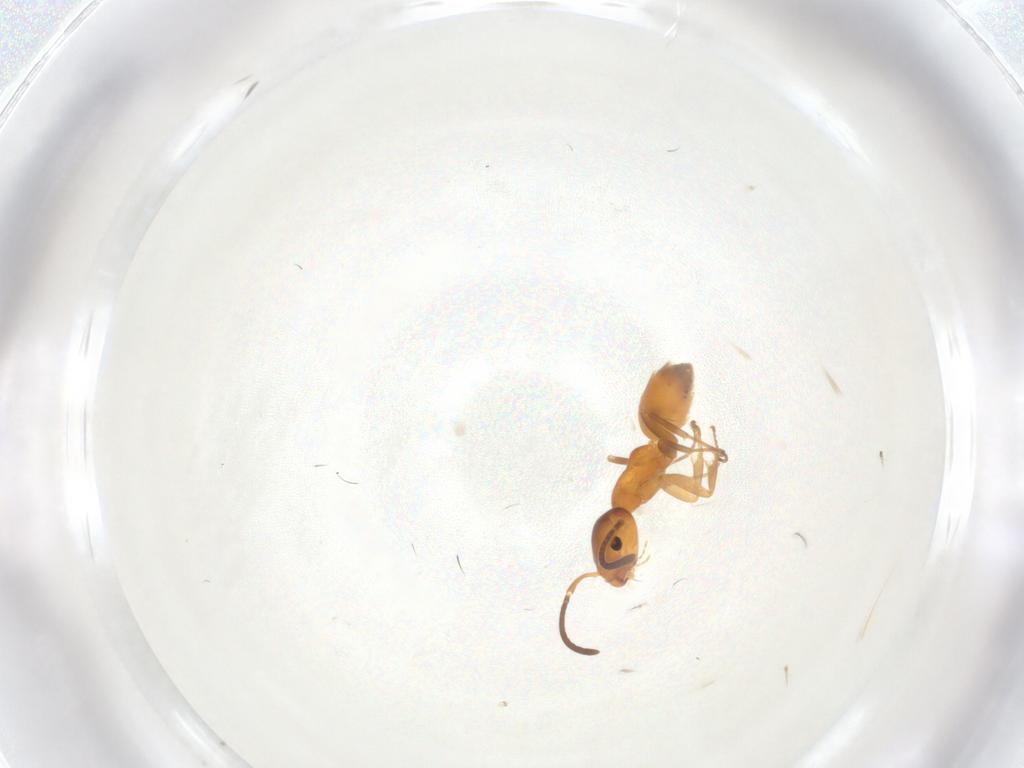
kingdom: Animalia
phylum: Arthropoda
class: Insecta
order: Hymenoptera
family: Formicidae
